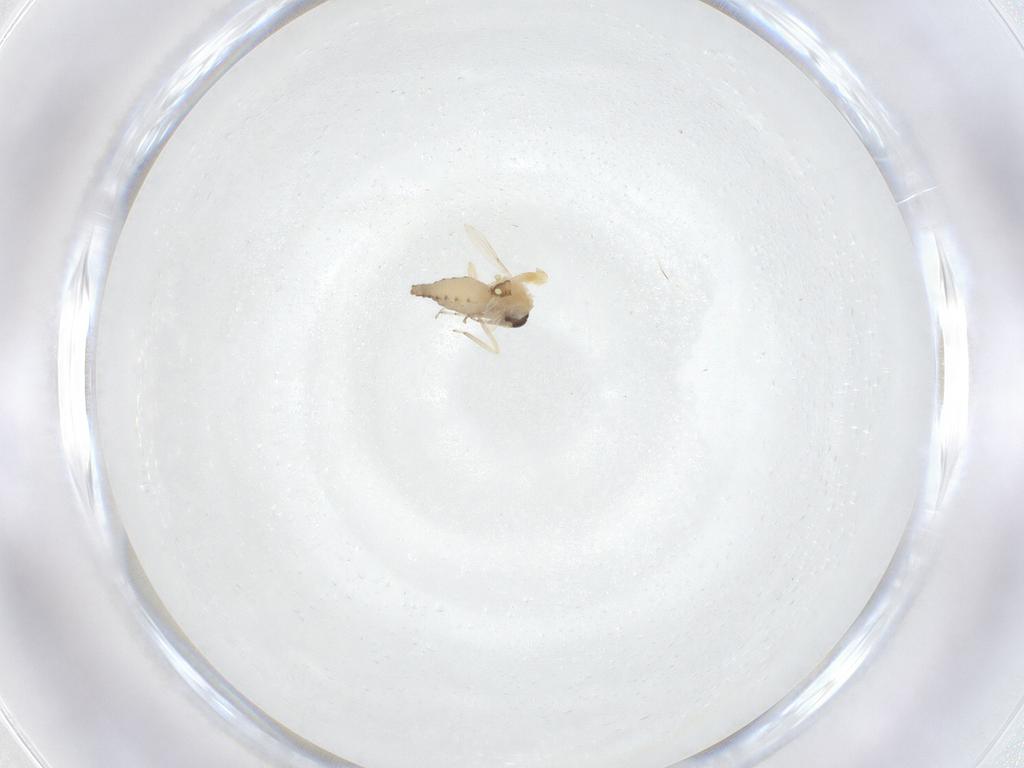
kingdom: Animalia
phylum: Arthropoda
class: Insecta
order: Diptera
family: Ceratopogonidae
